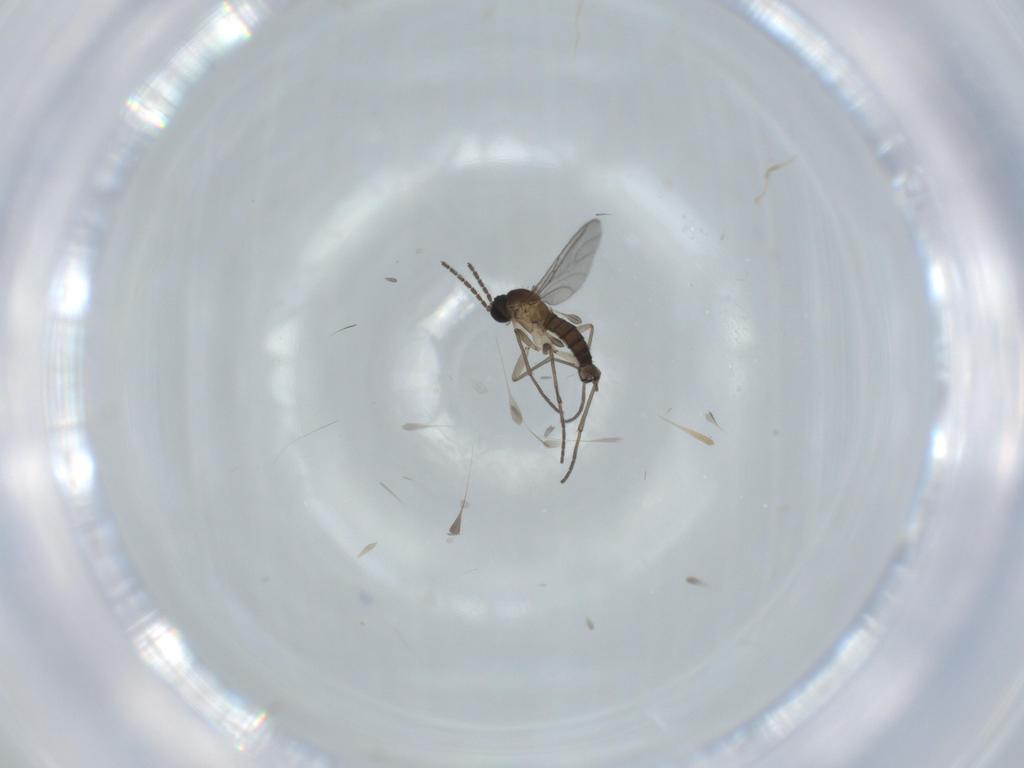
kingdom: Animalia
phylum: Arthropoda
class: Insecta
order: Diptera
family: Sciaridae
